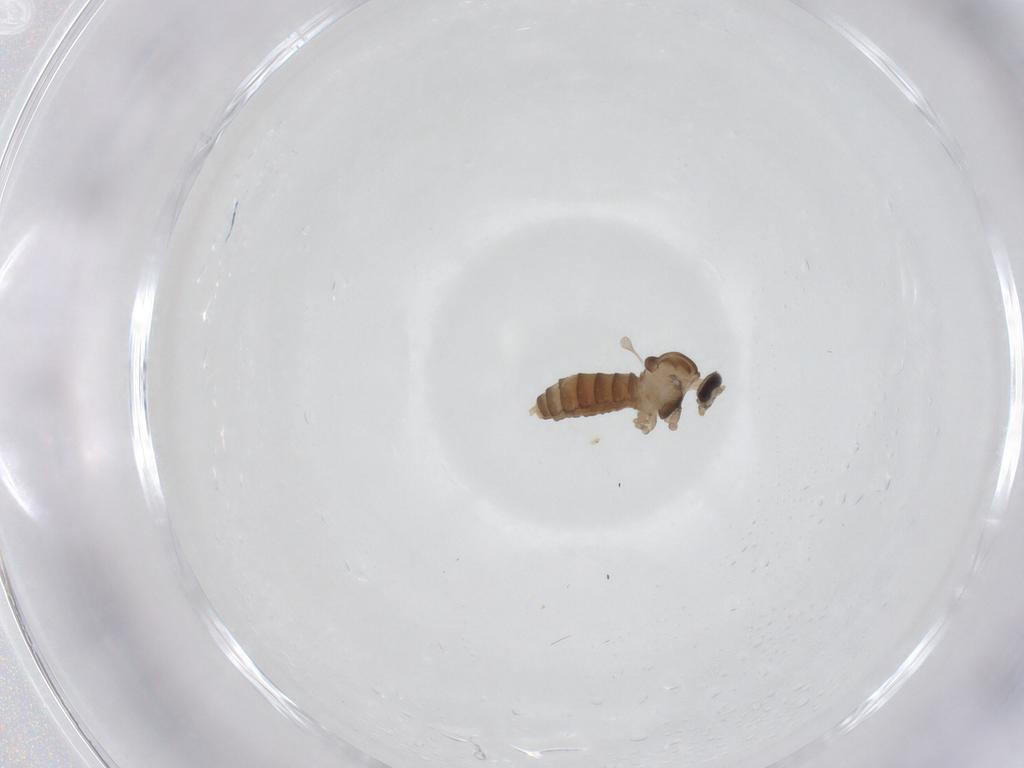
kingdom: Animalia
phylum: Arthropoda
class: Insecta
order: Diptera
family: Cecidomyiidae
